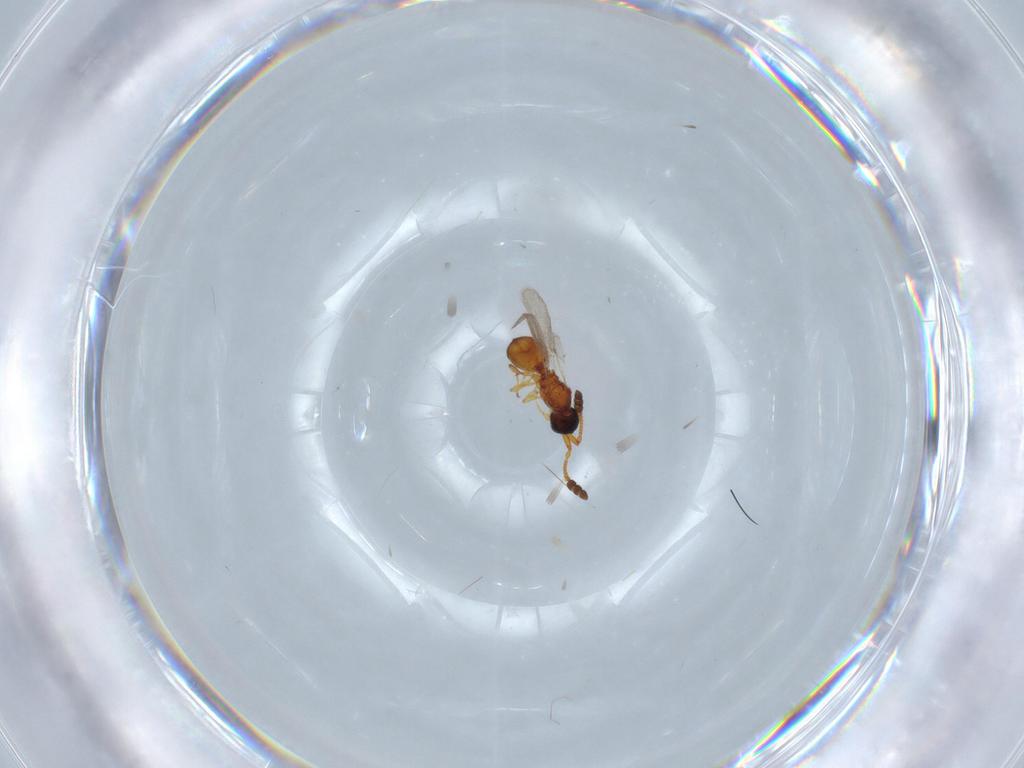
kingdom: Animalia
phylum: Arthropoda
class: Insecta
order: Hymenoptera
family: Diapriidae
